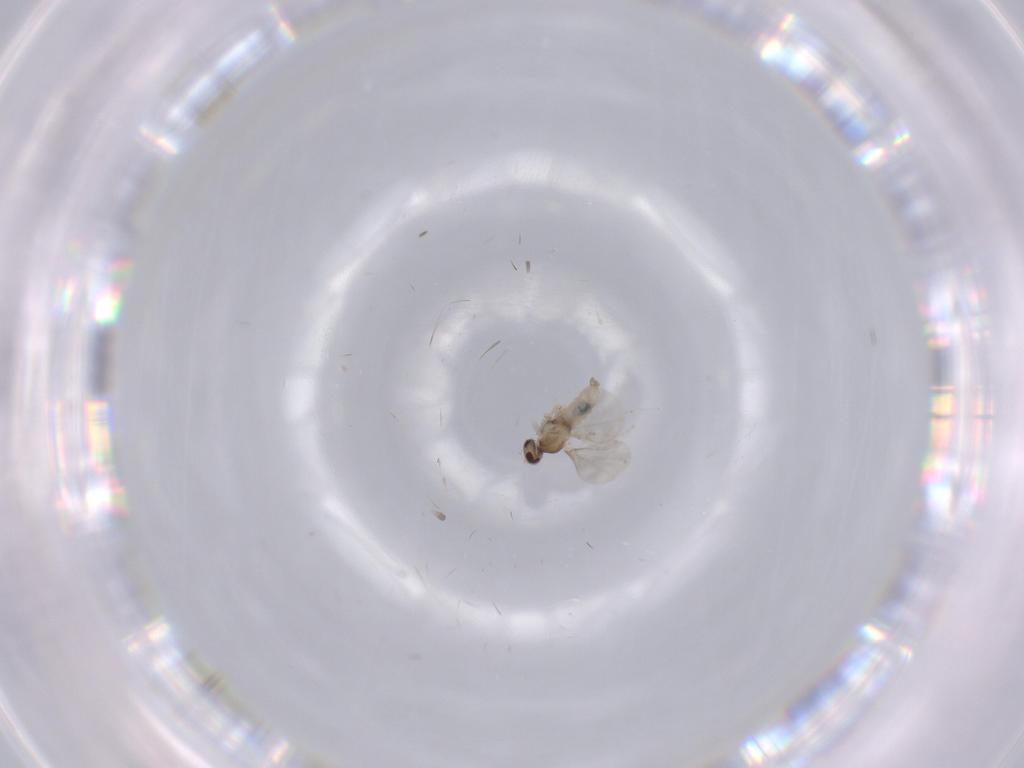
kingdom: Animalia
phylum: Arthropoda
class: Insecta
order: Diptera
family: Cecidomyiidae
